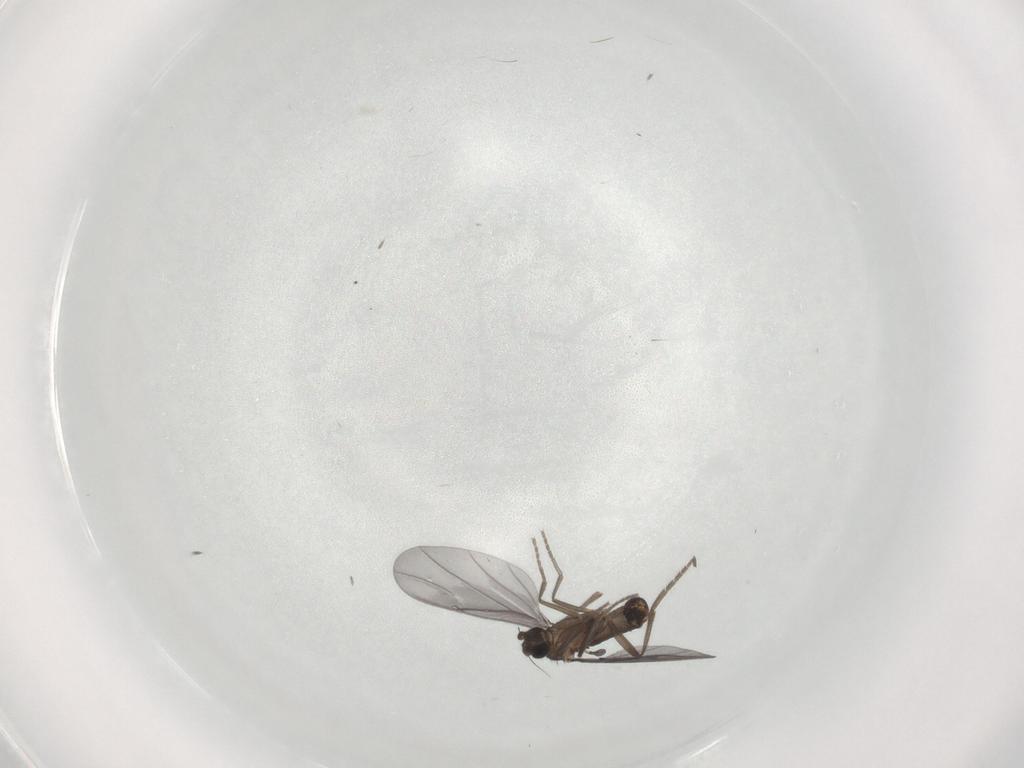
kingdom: Animalia
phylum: Arthropoda
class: Insecta
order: Diptera
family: Phoridae
